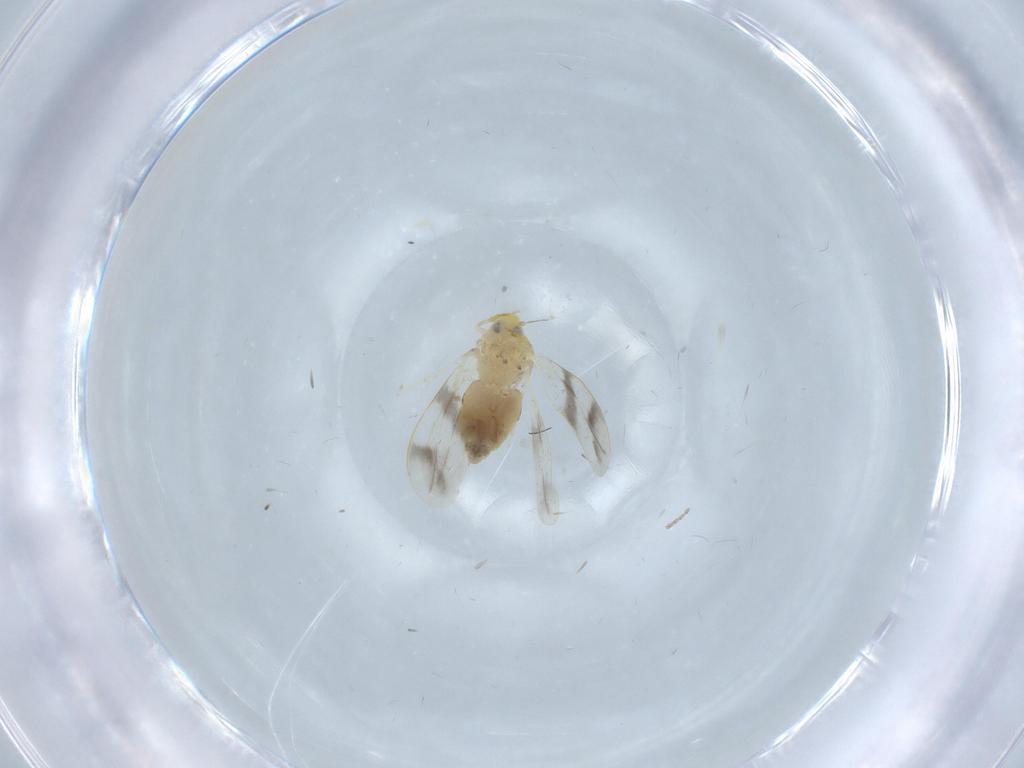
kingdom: Animalia
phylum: Arthropoda
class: Insecta
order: Hemiptera
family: Aleyrodidae
